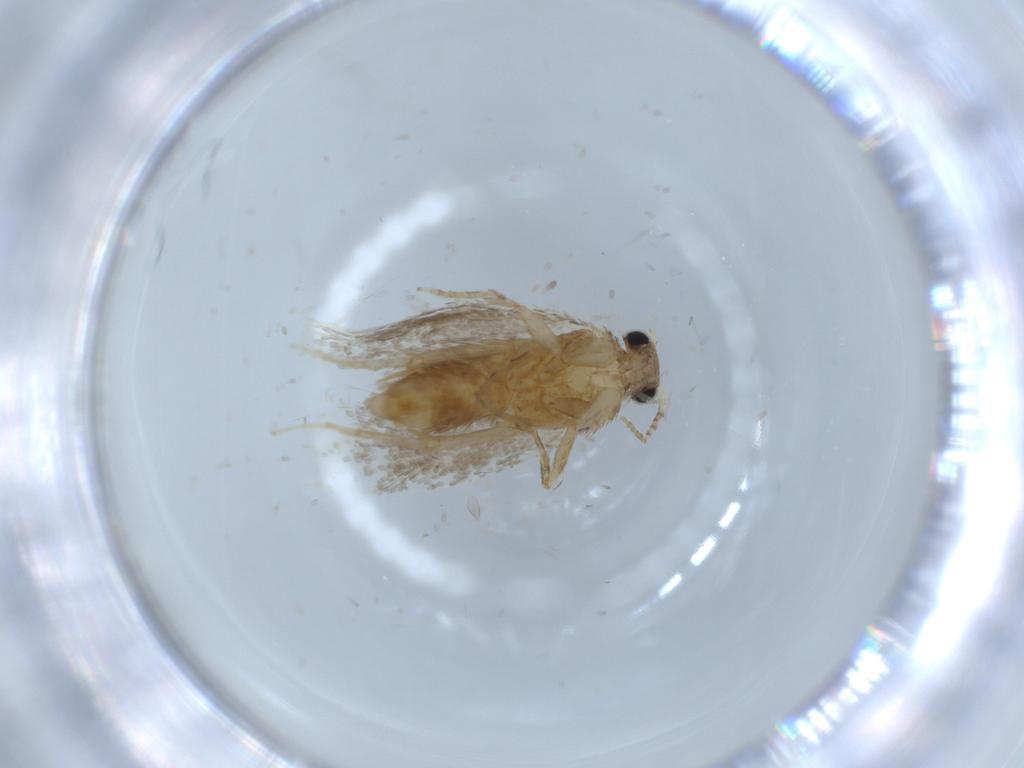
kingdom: Animalia
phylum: Arthropoda
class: Insecta
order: Lepidoptera
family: Tineidae
